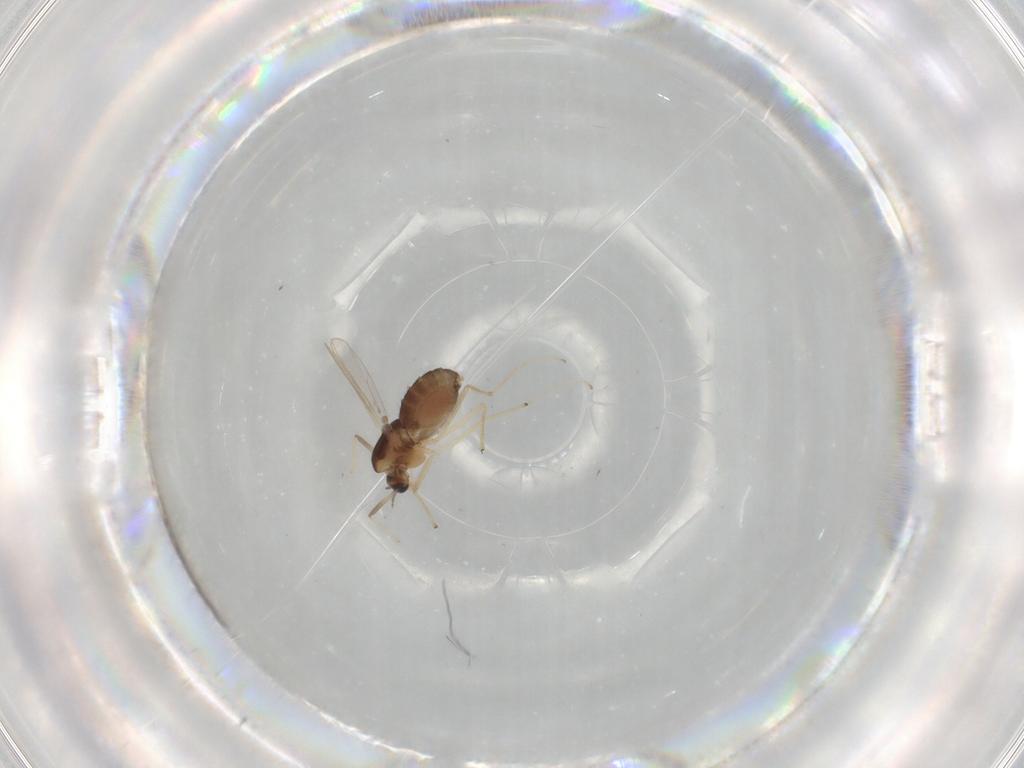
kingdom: Animalia
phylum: Arthropoda
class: Insecta
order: Diptera
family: Chironomidae
